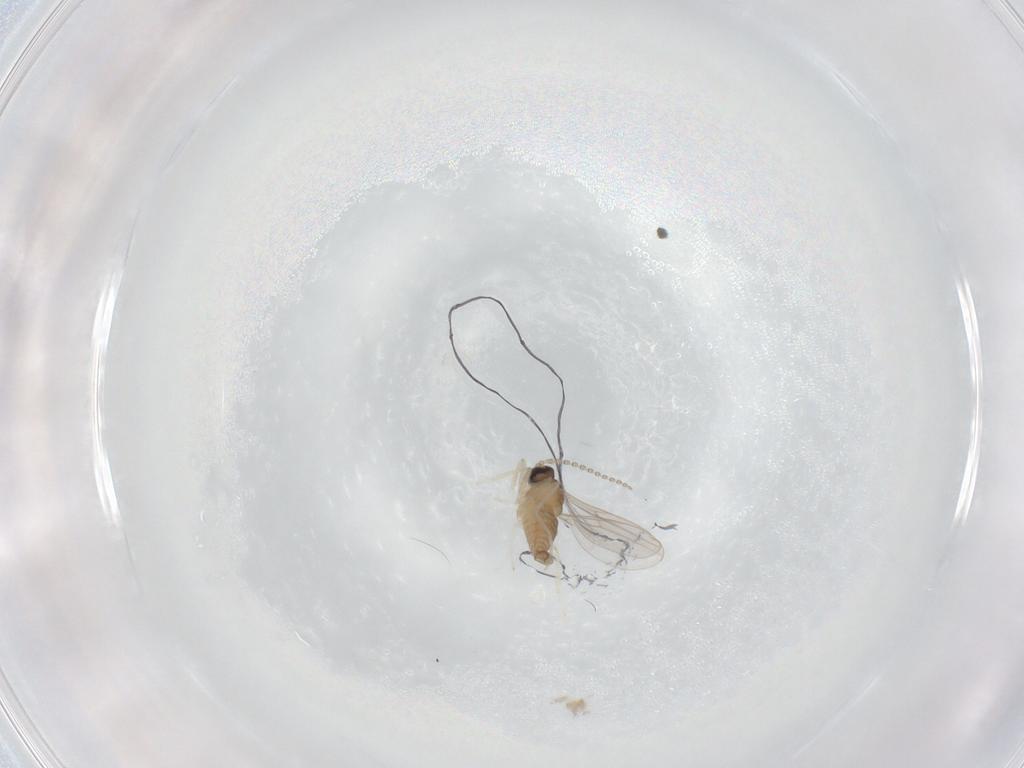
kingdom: Animalia
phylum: Arthropoda
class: Insecta
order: Diptera
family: Cecidomyiidae
